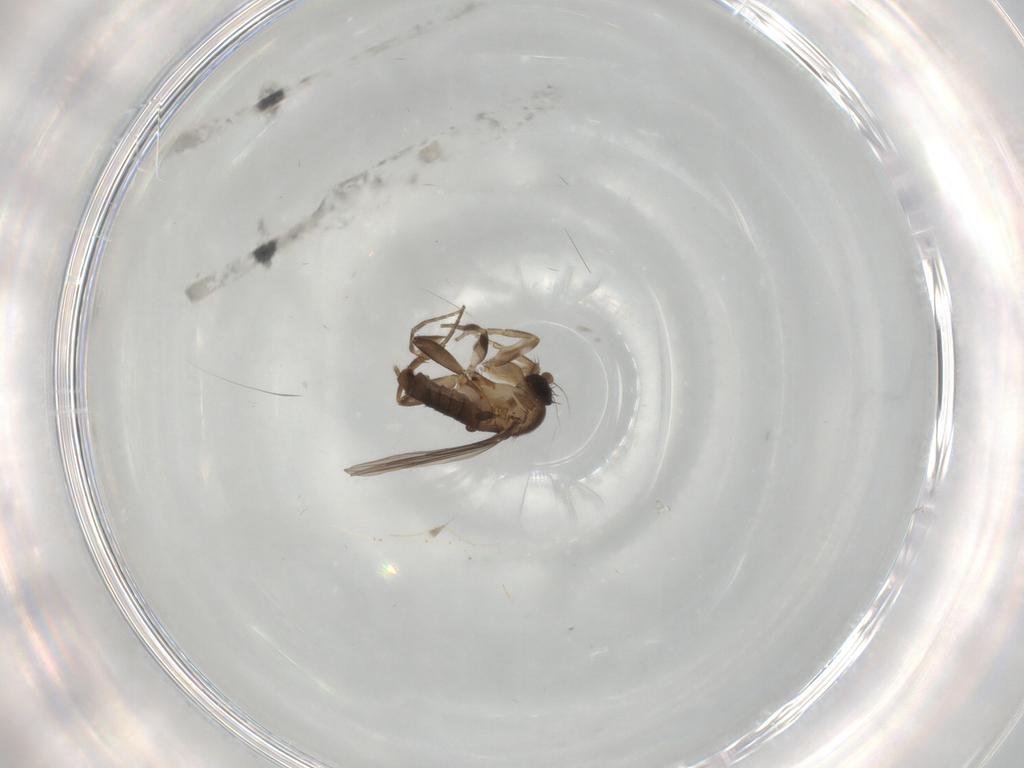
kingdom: Animalia
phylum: Arthropoda
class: Insecta
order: Diptera
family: Cecidomyiidae
